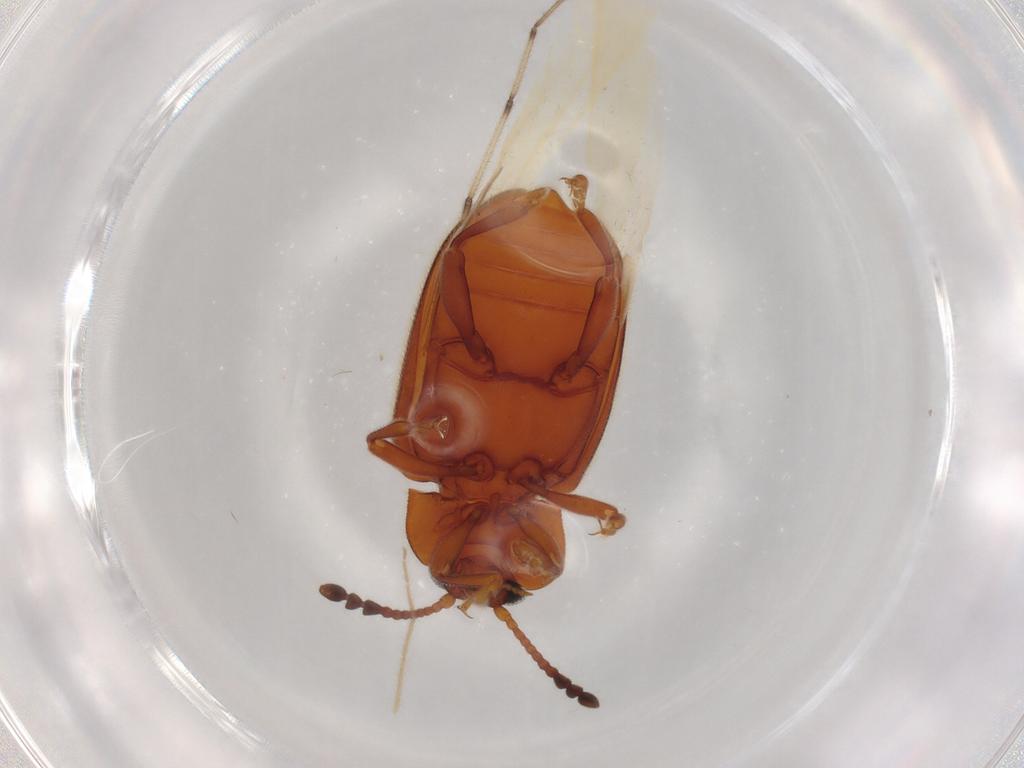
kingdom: Animalia
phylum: Arthropoda
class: Insecta
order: Coleoptera
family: Endomychidae
